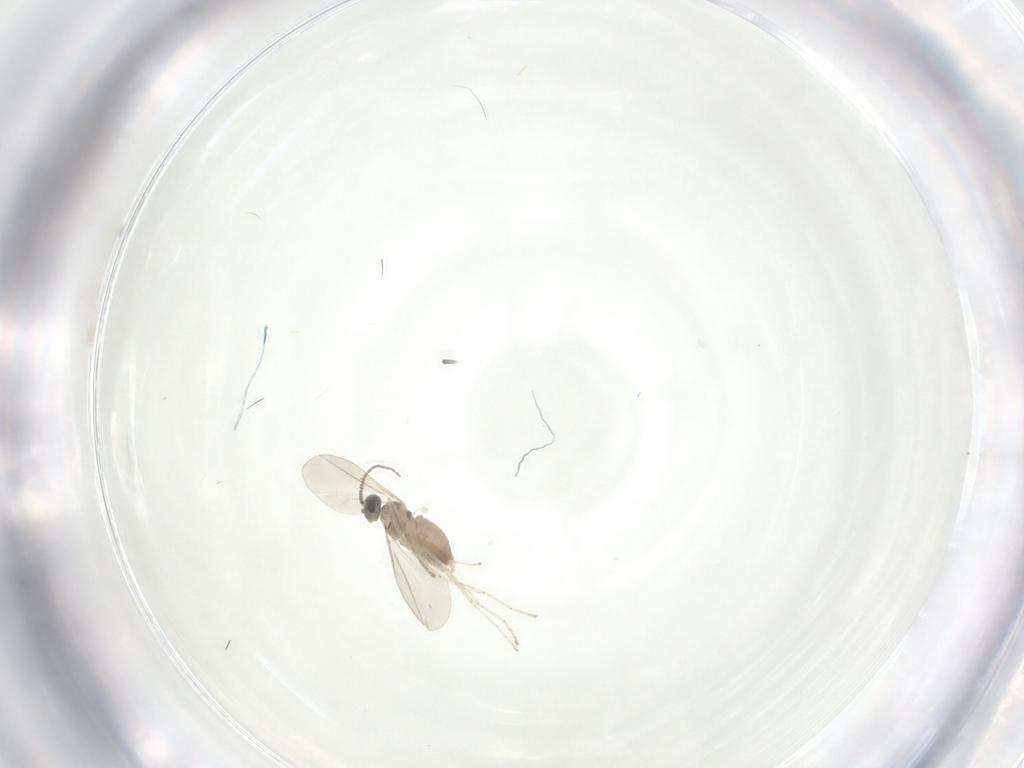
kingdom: Animalia
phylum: Arthropoda
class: Insecta
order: Diptera
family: Cecidomyiidae
